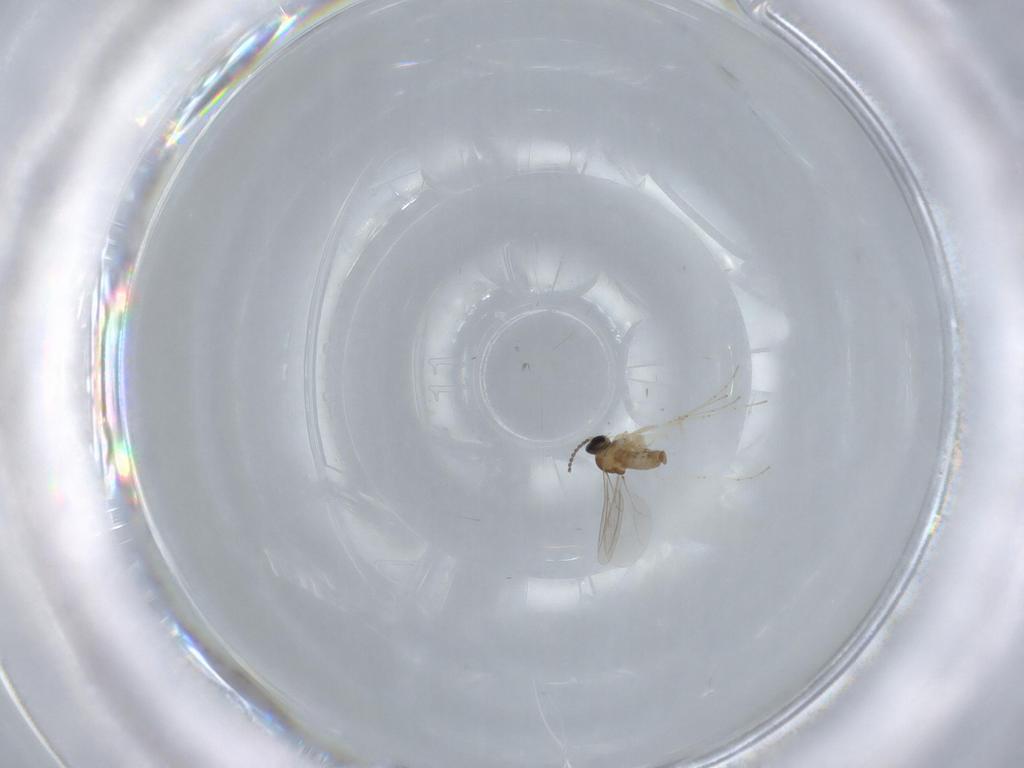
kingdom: Animalia
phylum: Arthropoda
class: Insecta
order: Diptera
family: Cecidomyiidae
